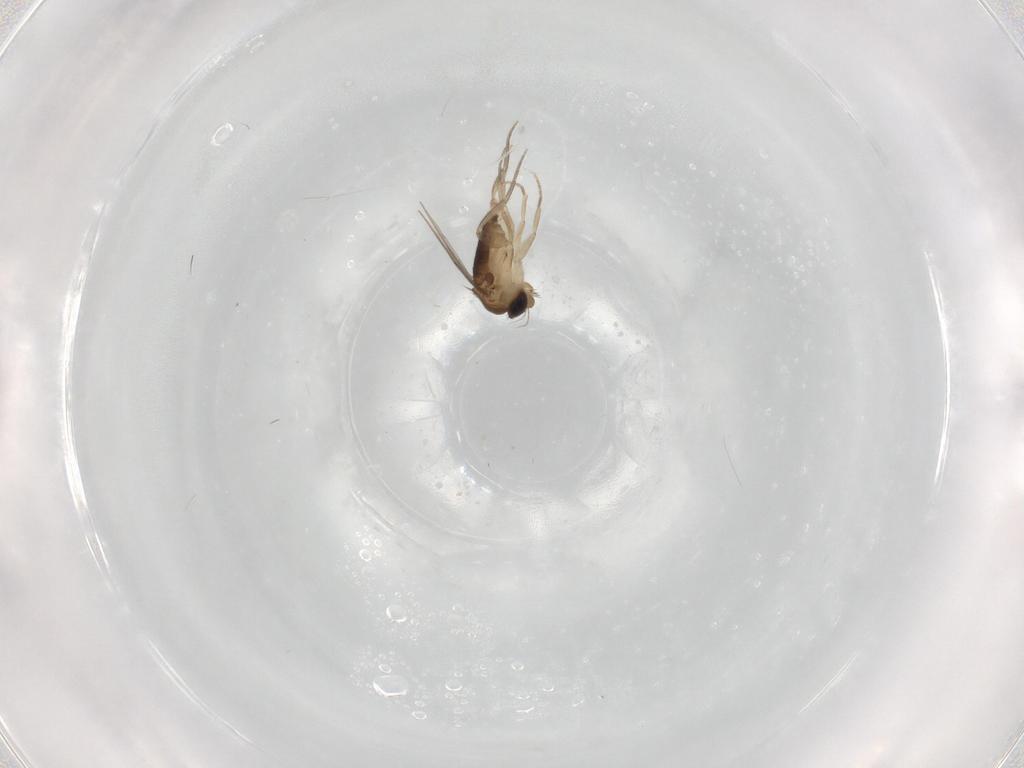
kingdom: Animalia
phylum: Arthropoda
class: Insecta
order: Diptera
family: Phoridae
